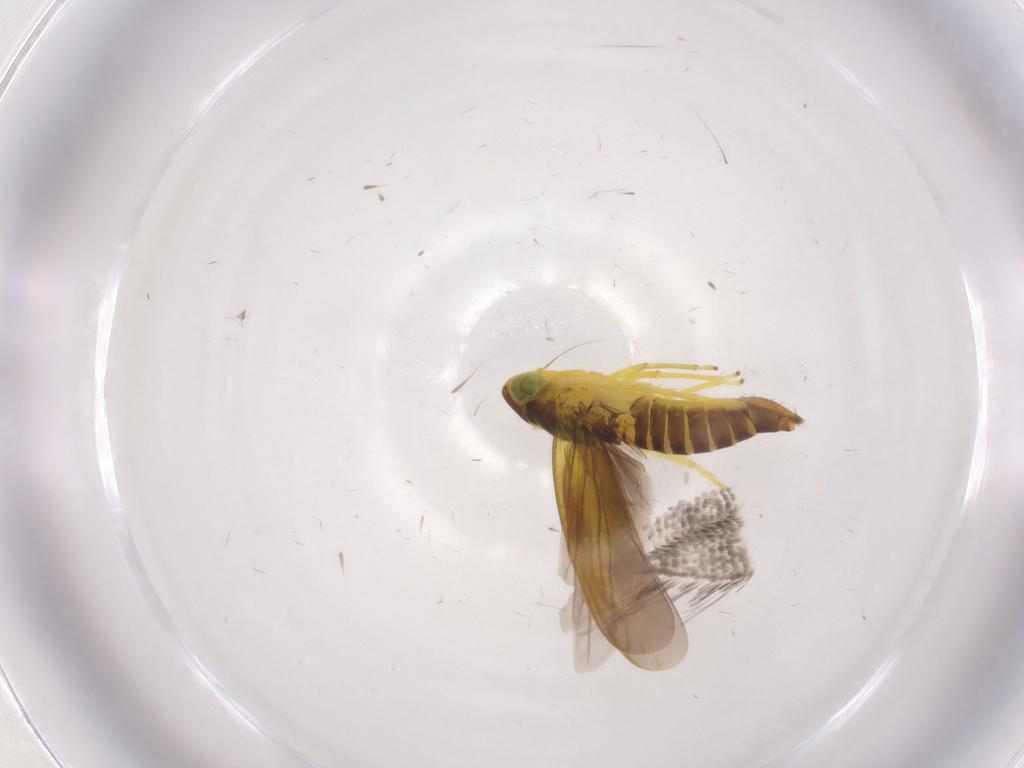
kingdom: Animalia
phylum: Arthropoda
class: Insecta
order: Hemiptera
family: Cicadellidae
